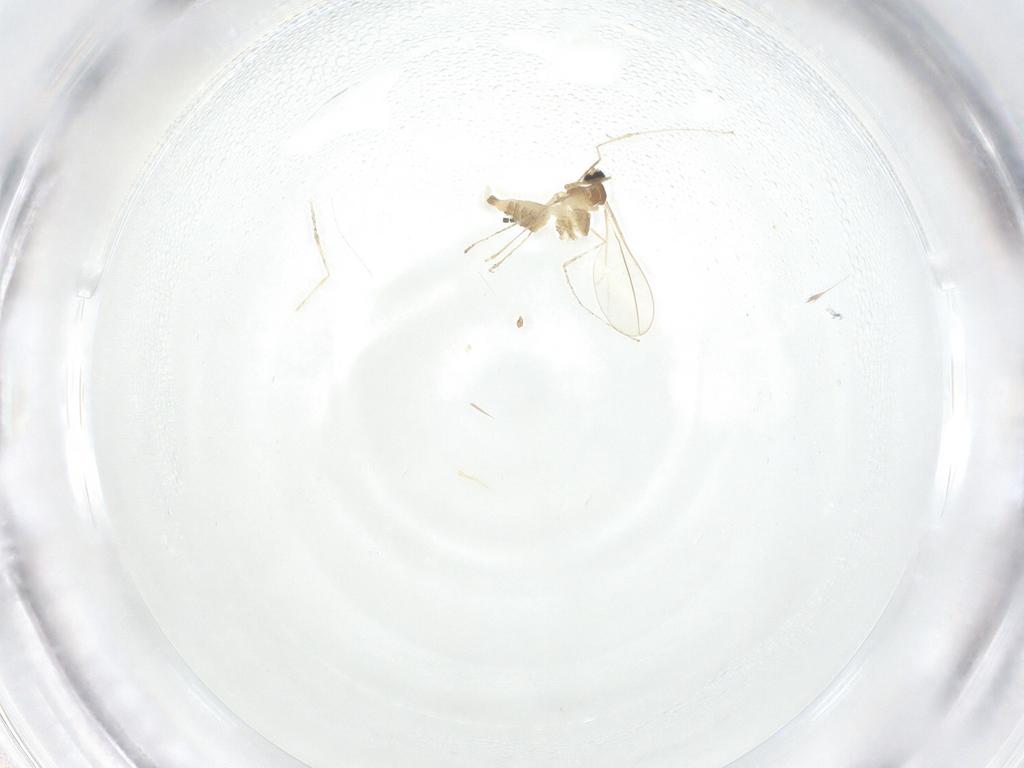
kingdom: Animalia
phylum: Arthropoda
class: Insecta
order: Diptera
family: Cecidomyiidae
